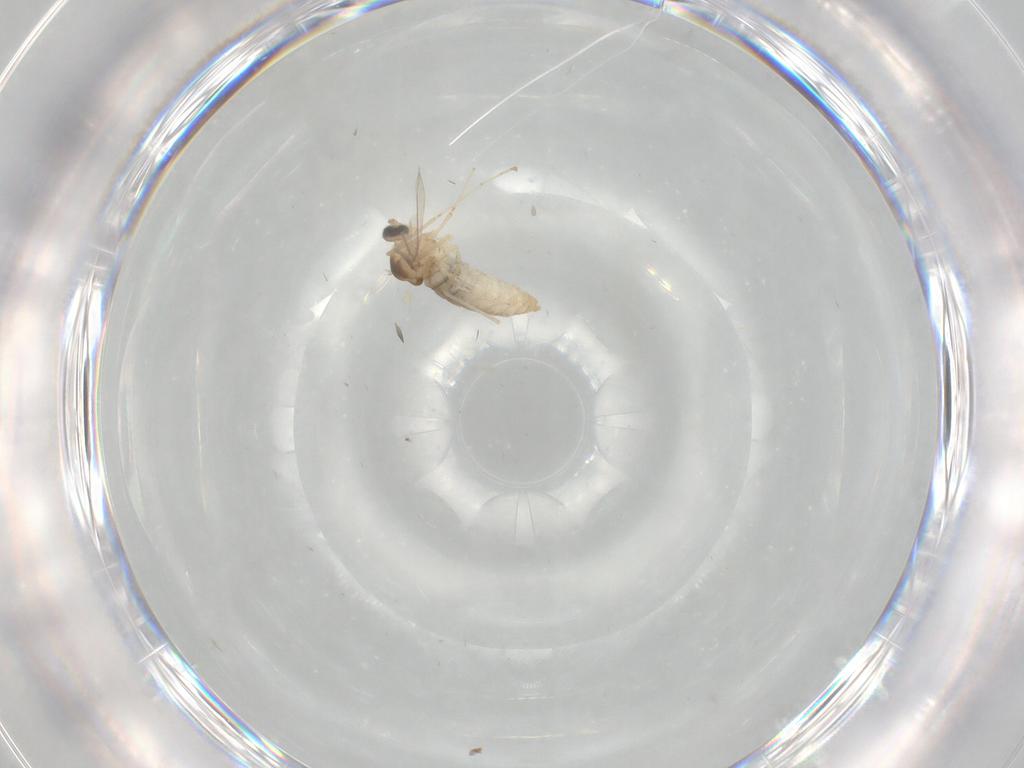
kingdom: Animalia
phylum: Arthropoda
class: Insecta
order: Diptera
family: Cecidomyiidae
